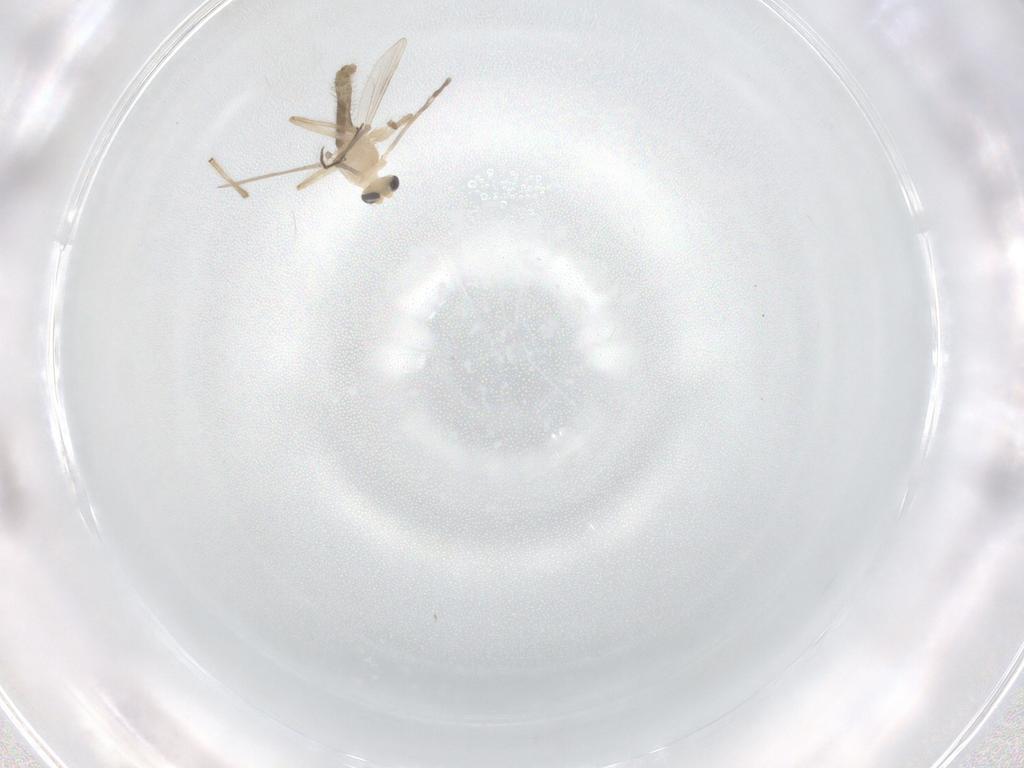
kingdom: Animalia
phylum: Arthropoda
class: Insecta
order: Diptera
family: Chironomidae
